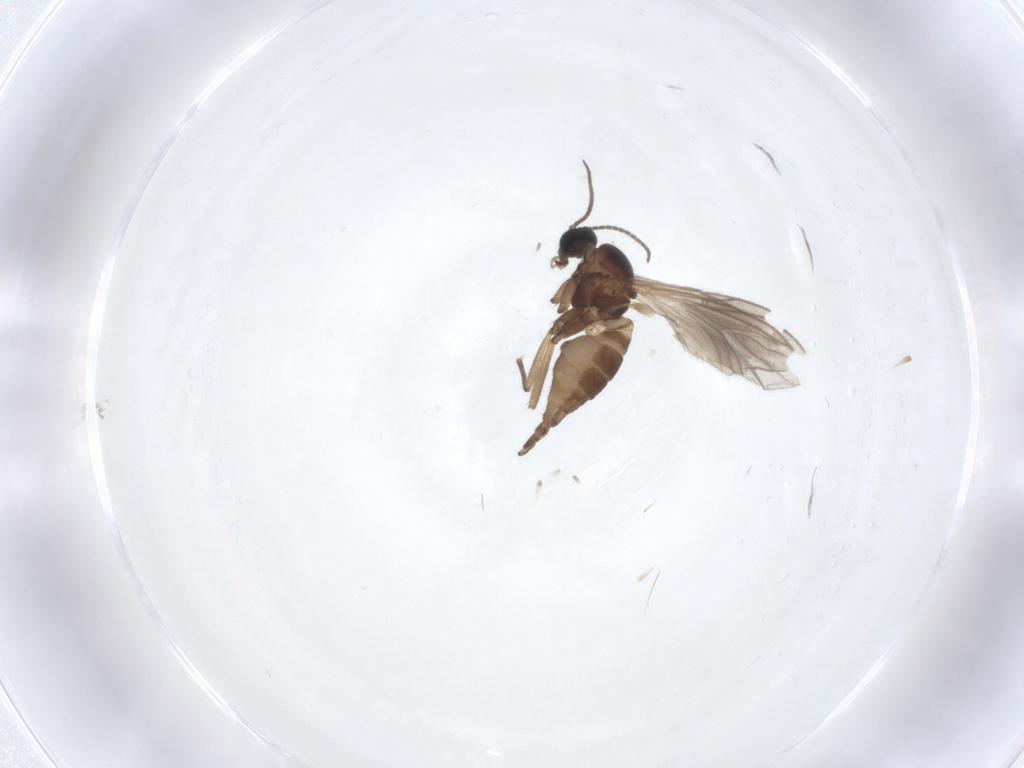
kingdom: Animalia
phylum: Arthropoda
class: Insecta
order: Diptera
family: Sciaridae
